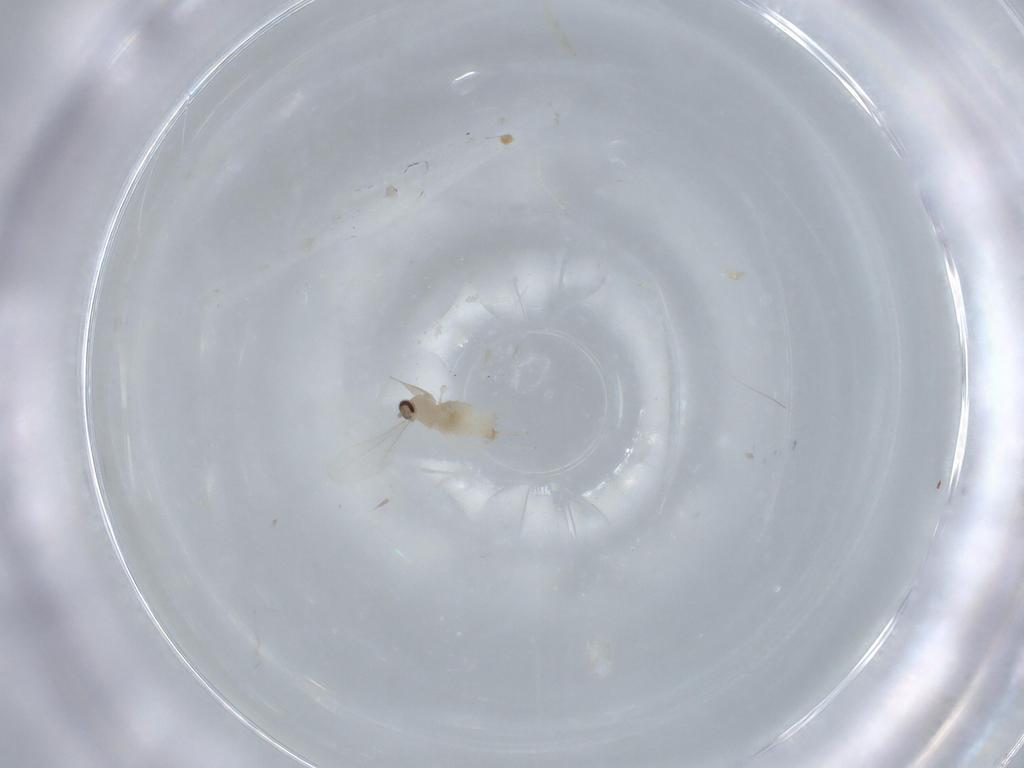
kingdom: Animalia
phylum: Arthropoda
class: Insecta
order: Diptera
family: Cecidomyiidae
